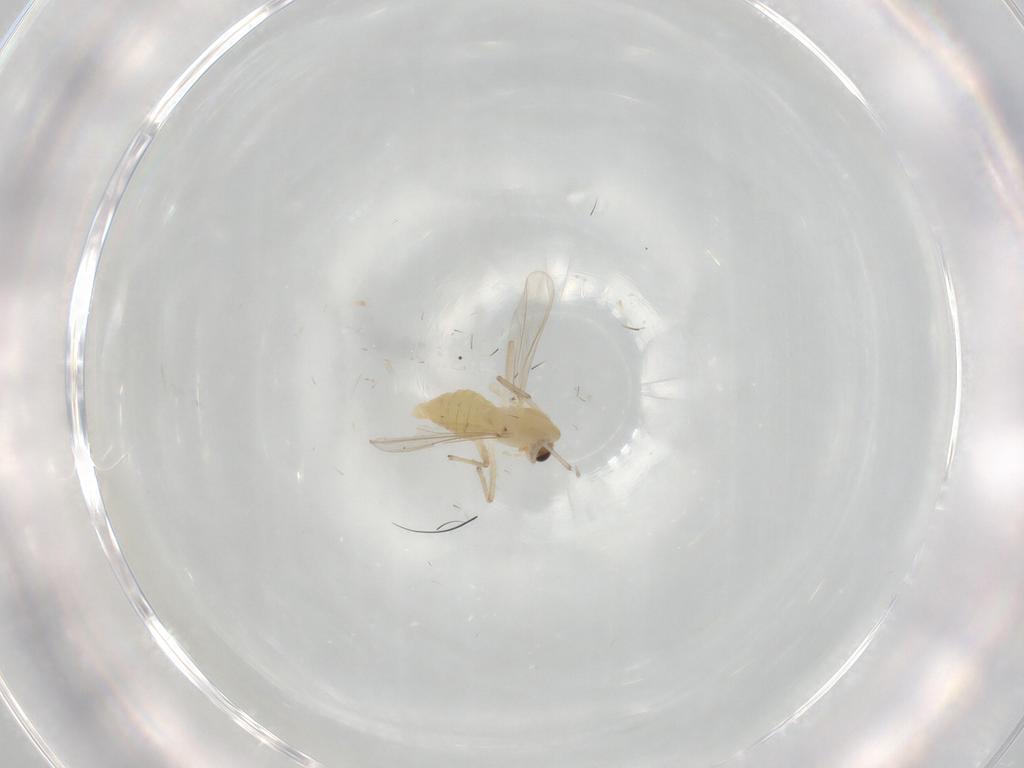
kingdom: Animalia
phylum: Arthropoda
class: Insecta
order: Diptera
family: Chironomidae
